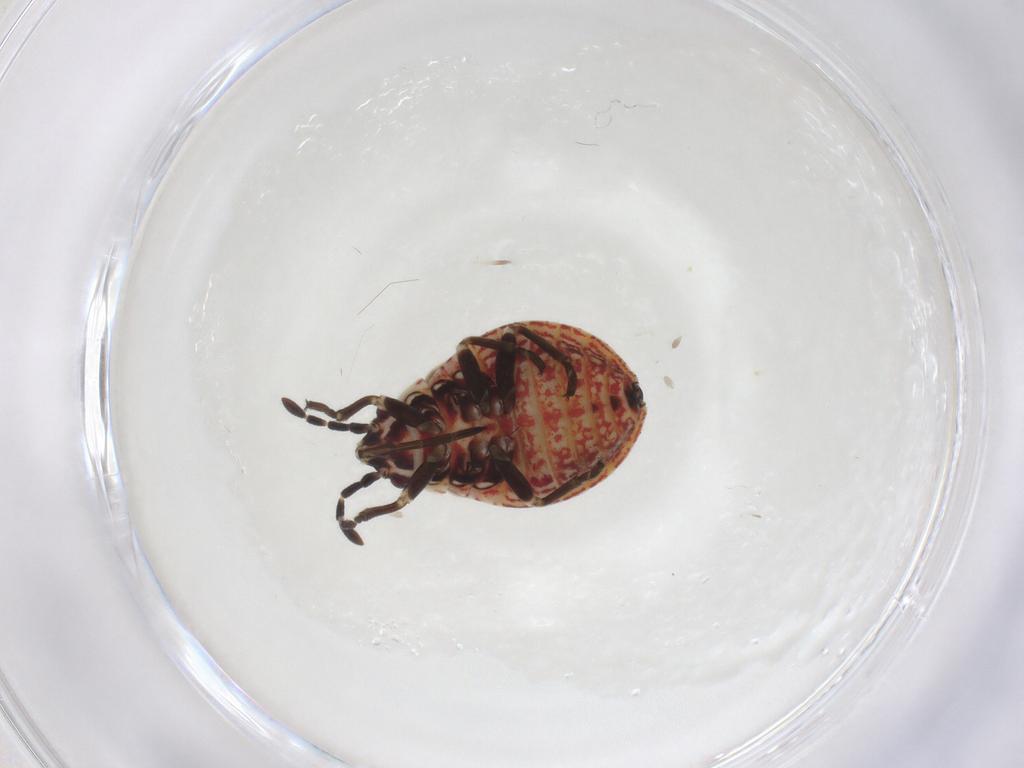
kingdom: Animalia
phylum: Arthropoda
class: Insecta
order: Hemiptera
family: Lygaeidae
